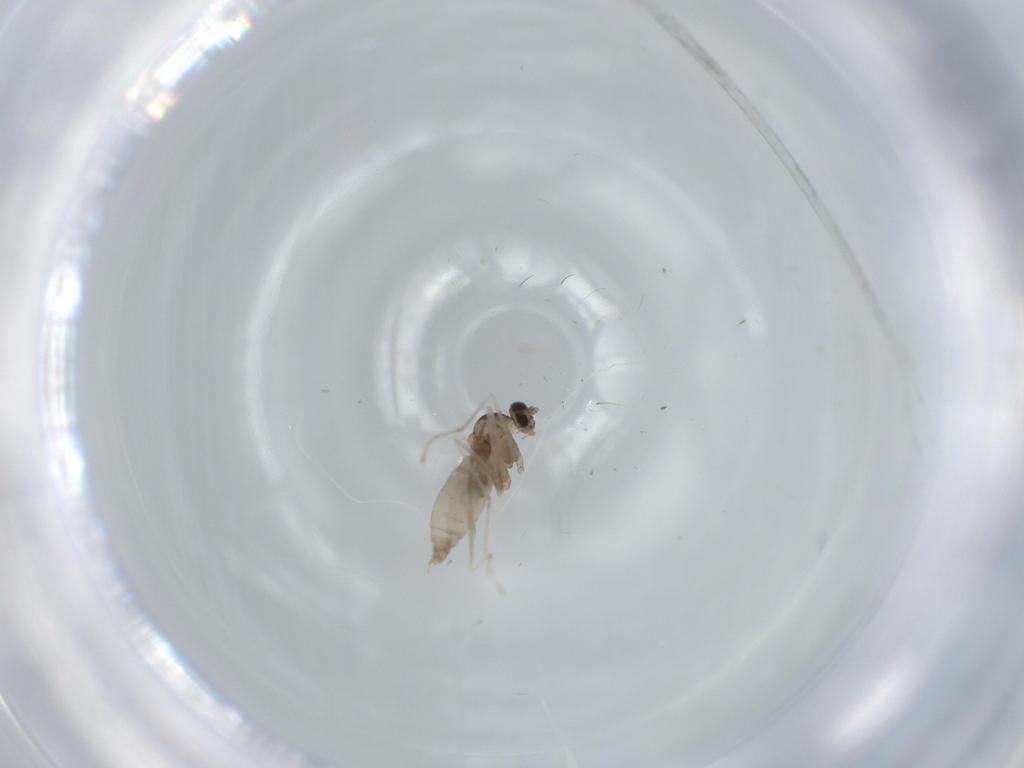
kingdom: Animalia
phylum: Arthropoda
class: Insecta
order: Diptera
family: Cecidomyiidae
